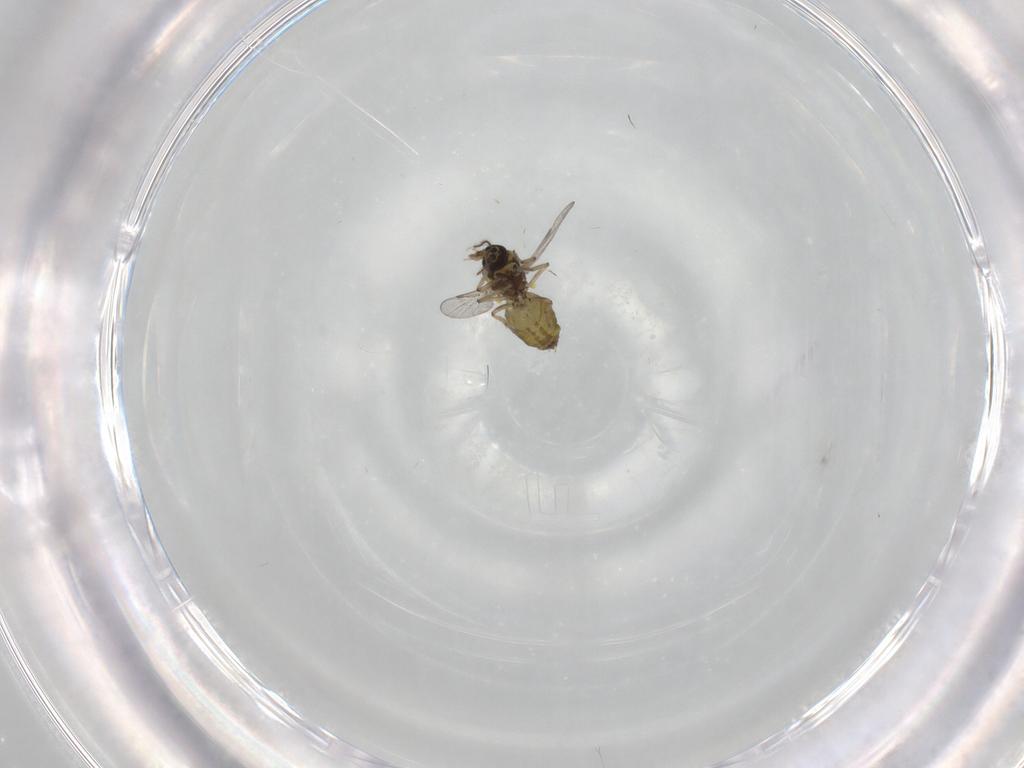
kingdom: Animalia
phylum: Arthropoda
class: Insecta
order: Diptera
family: Ceratopogonidae
